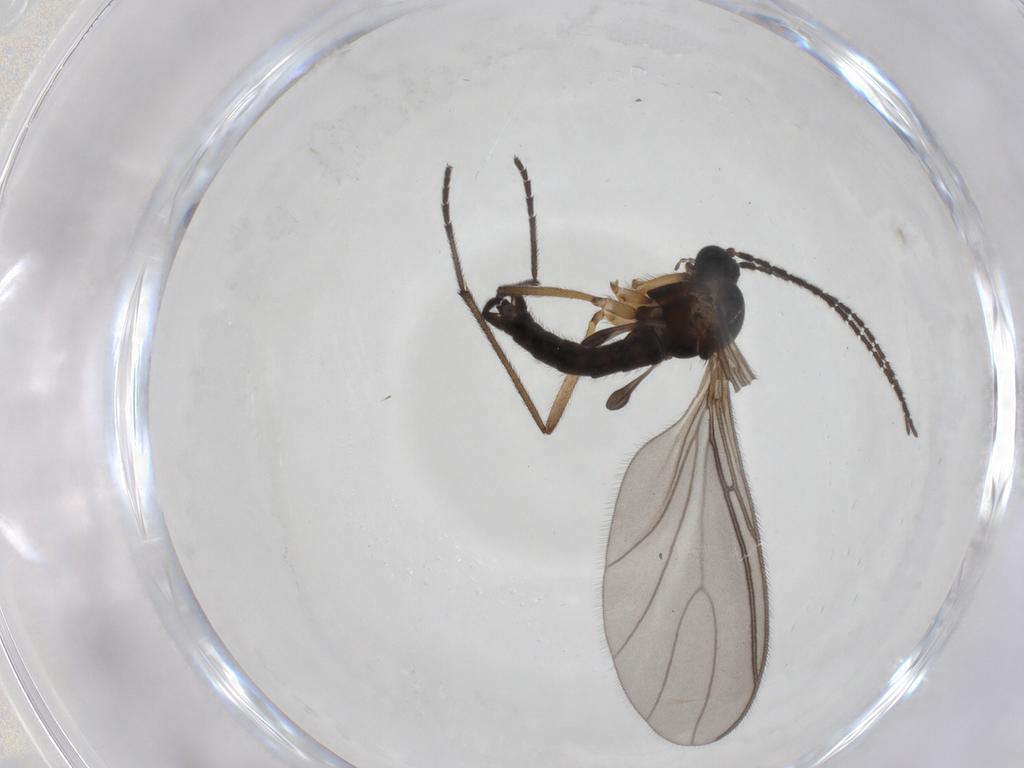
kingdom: Animalia
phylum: Arthropoda
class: Insecta
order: Diptera
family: Sciaridae
